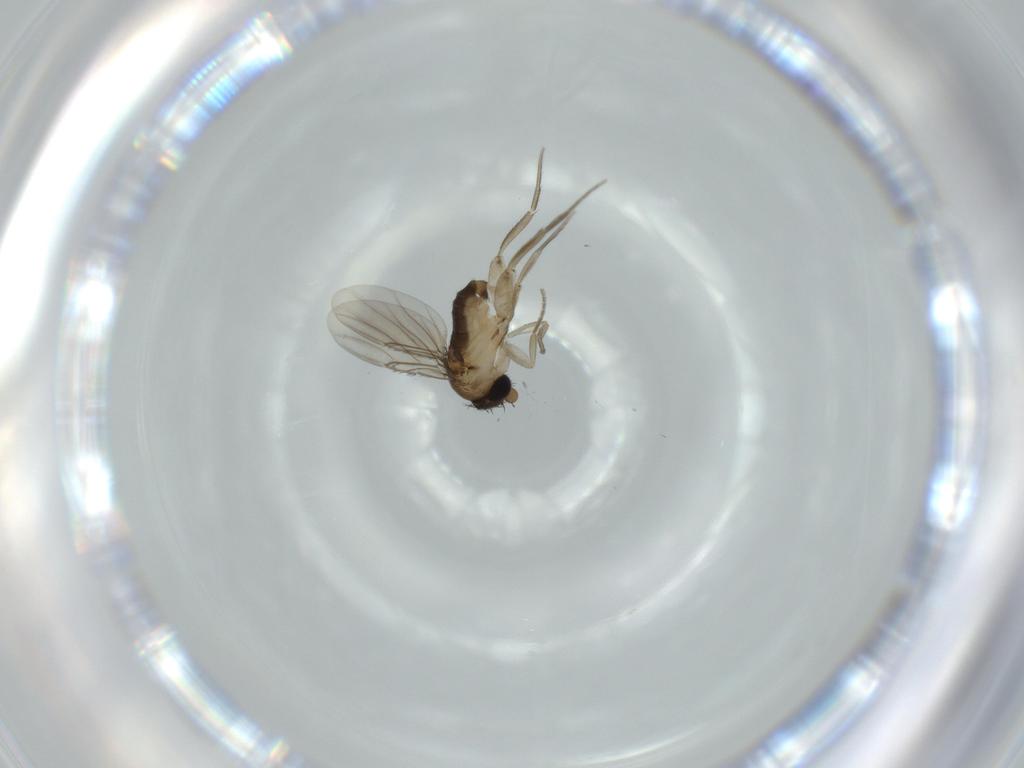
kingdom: Animalia
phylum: Arthropoda
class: Insecta
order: Diptera
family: Phoridae
